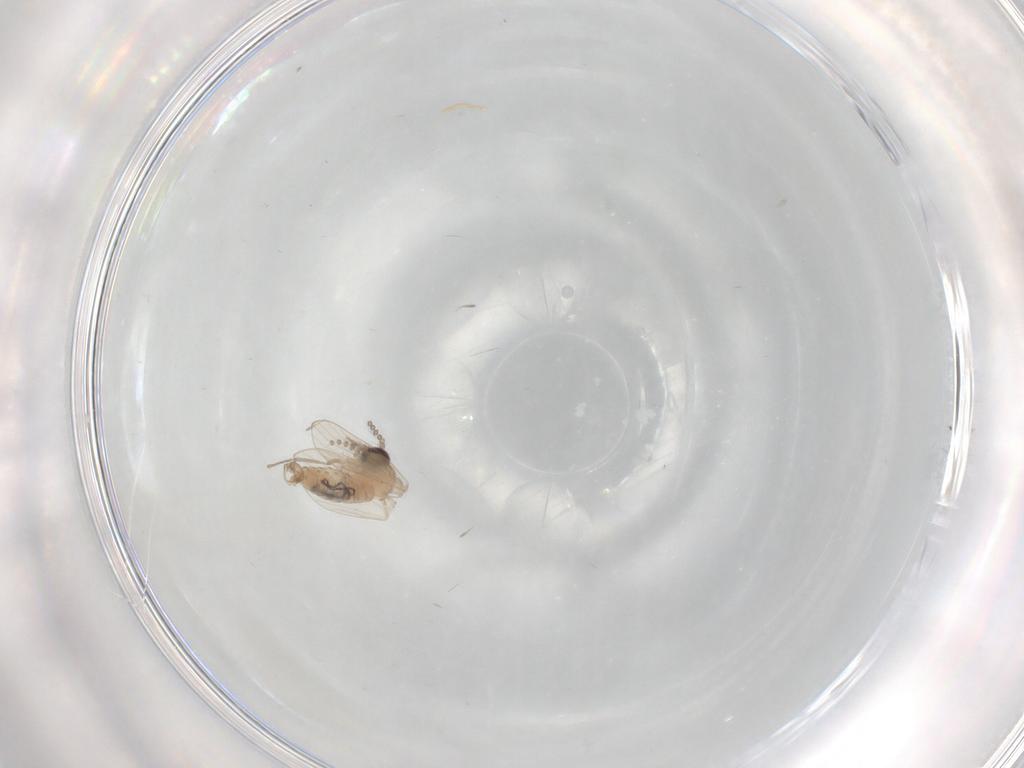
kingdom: Animalia
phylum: Arthropoda
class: Insecta
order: Diptera
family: Psychodidae
